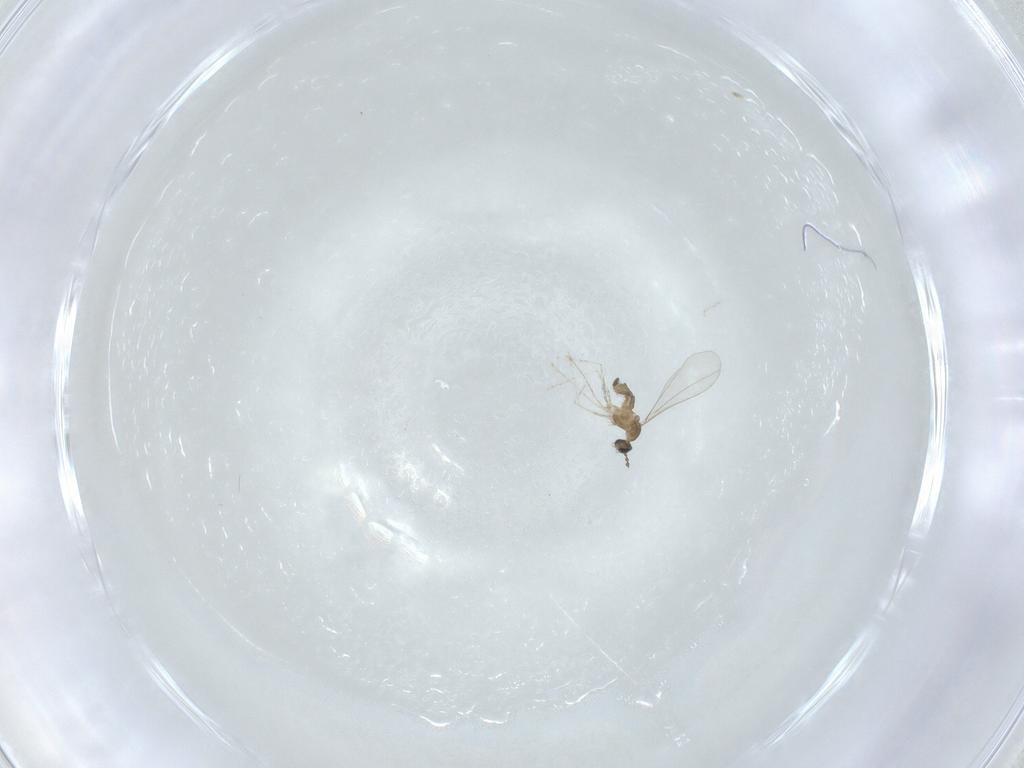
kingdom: Animalia
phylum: Arthropoda
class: Insecta
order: Diptera
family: Cecidomyiidae
